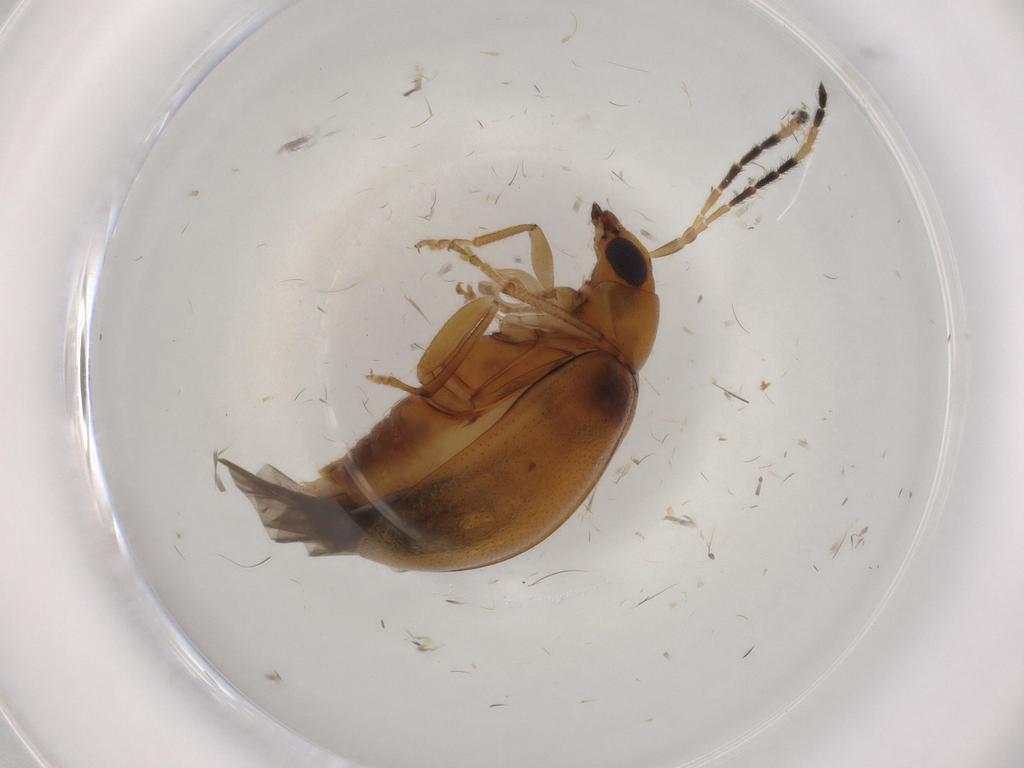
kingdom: Animalia
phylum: Arthropoda
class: Insecta
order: Coleoptera
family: Chrysomelidae
